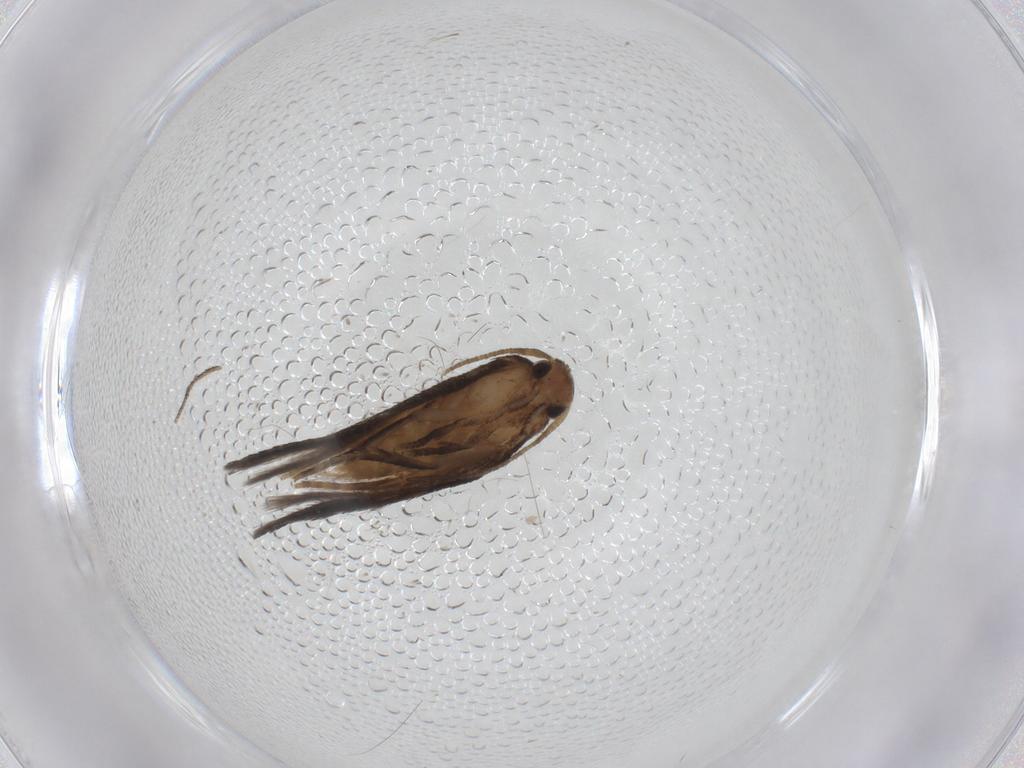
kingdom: Animalia
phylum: Arthropoda
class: Insecta
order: Lepidoptera
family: Elachistidae
